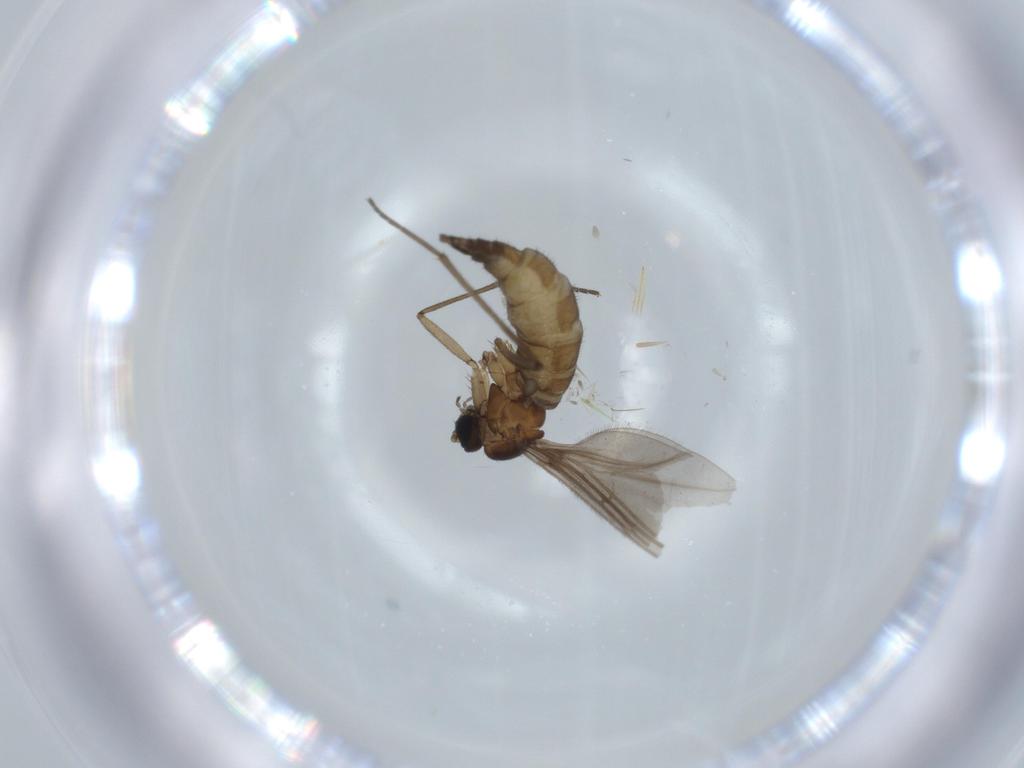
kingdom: Animalia
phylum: Arthropoda
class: Insecta
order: Diptera
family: Sciaridae
